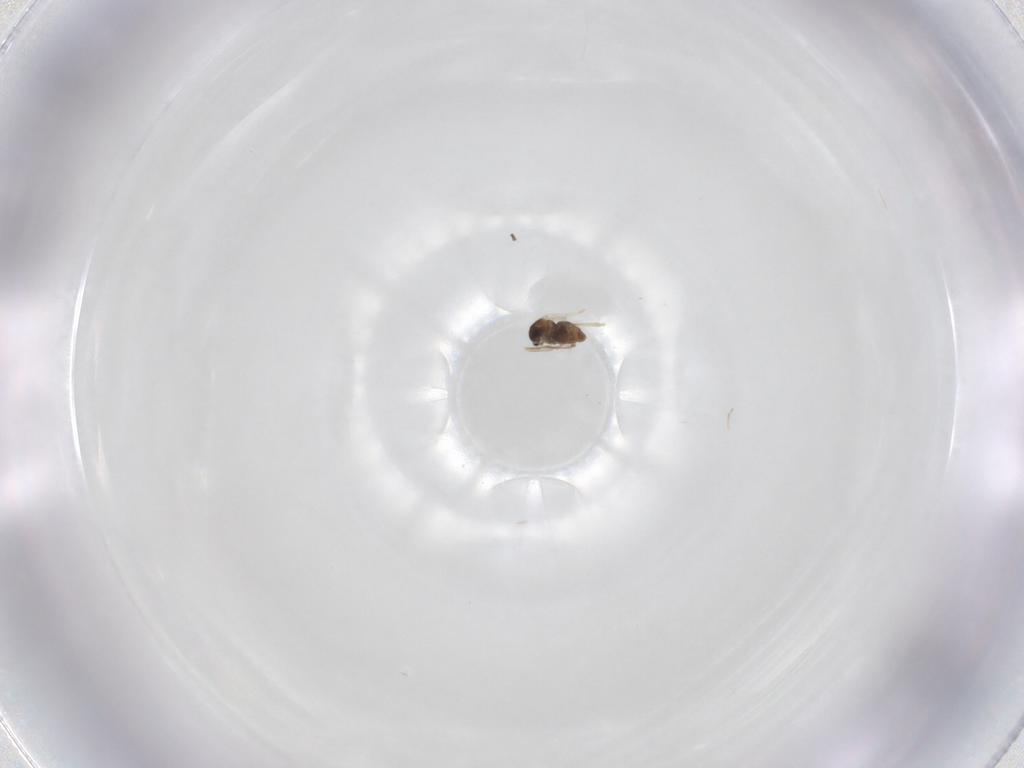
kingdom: Animalia
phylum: Arthropoda
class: Insecta
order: Diptera
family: Cecidomyiidae
